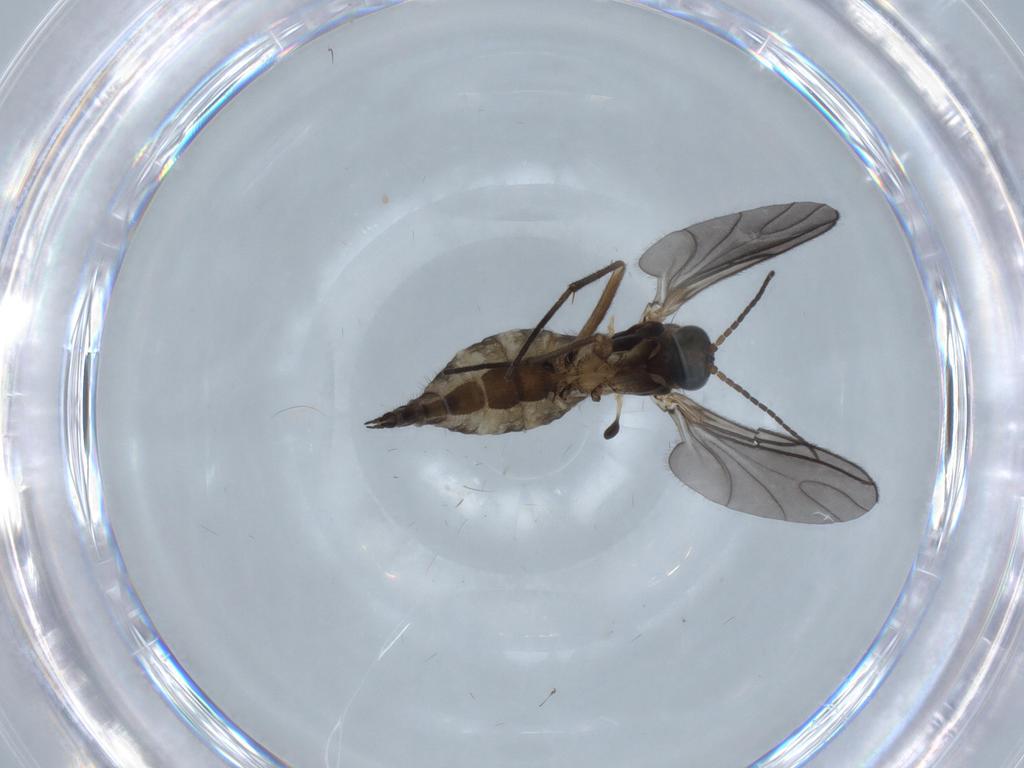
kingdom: Animalia
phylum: Arthropoda
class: Insecta
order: Diptera
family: Sciaridae
